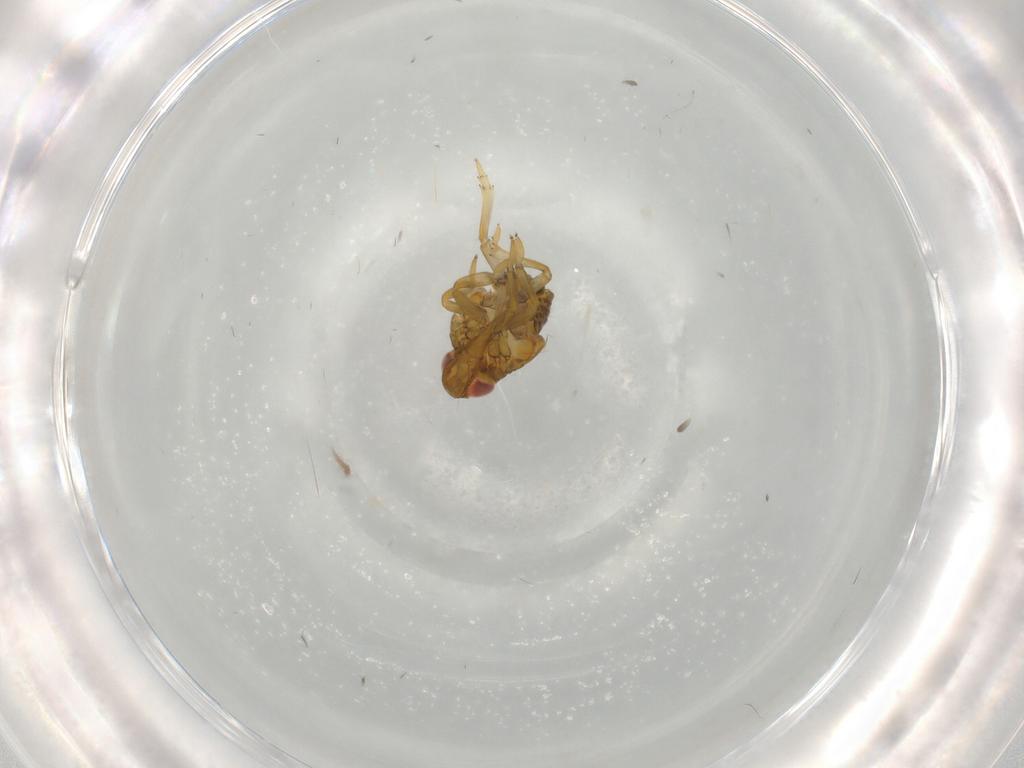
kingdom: Animalia
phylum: Arthropoda
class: Insecta
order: Hemiptera
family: Issidae
